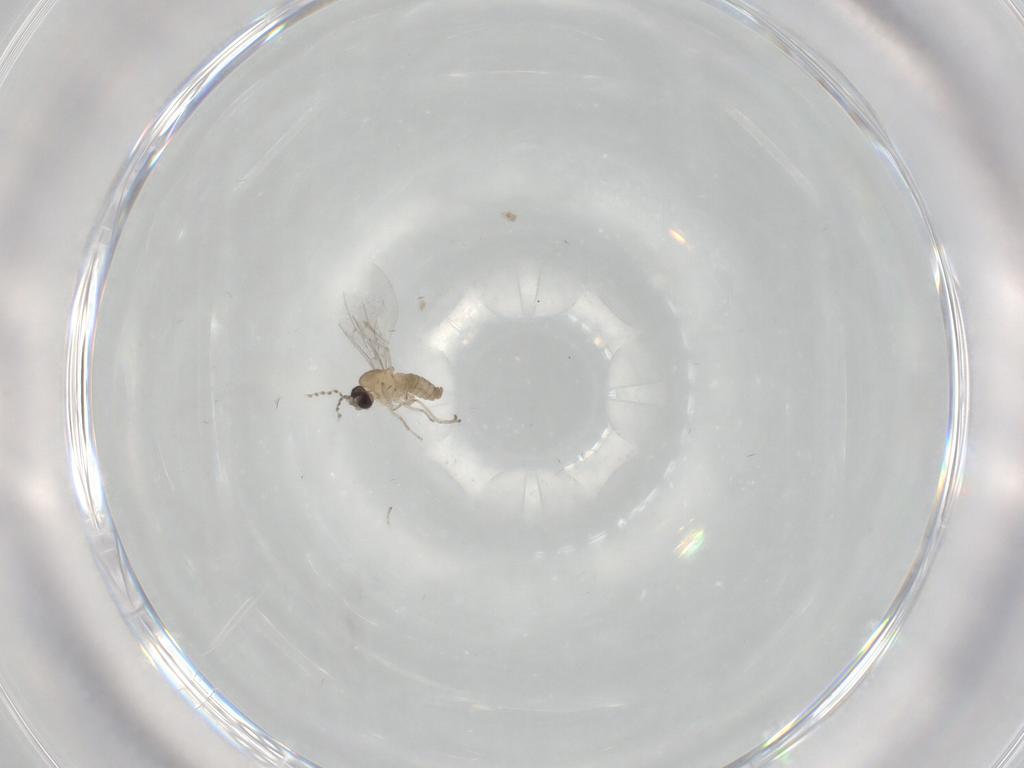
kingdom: Animalia
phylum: Arthropoda
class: Insecta
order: Diptera
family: Cecidomyiidae
